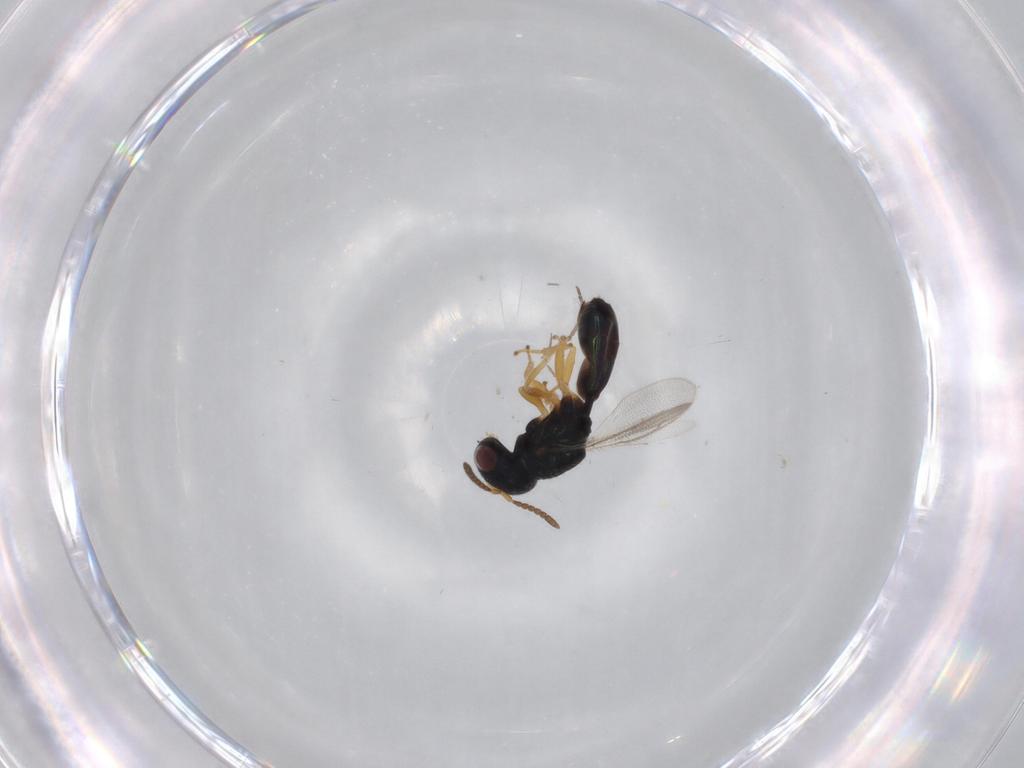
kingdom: Animalia
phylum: Arthropoda
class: Insecta
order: Hymenoptera
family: Pteromalidae
